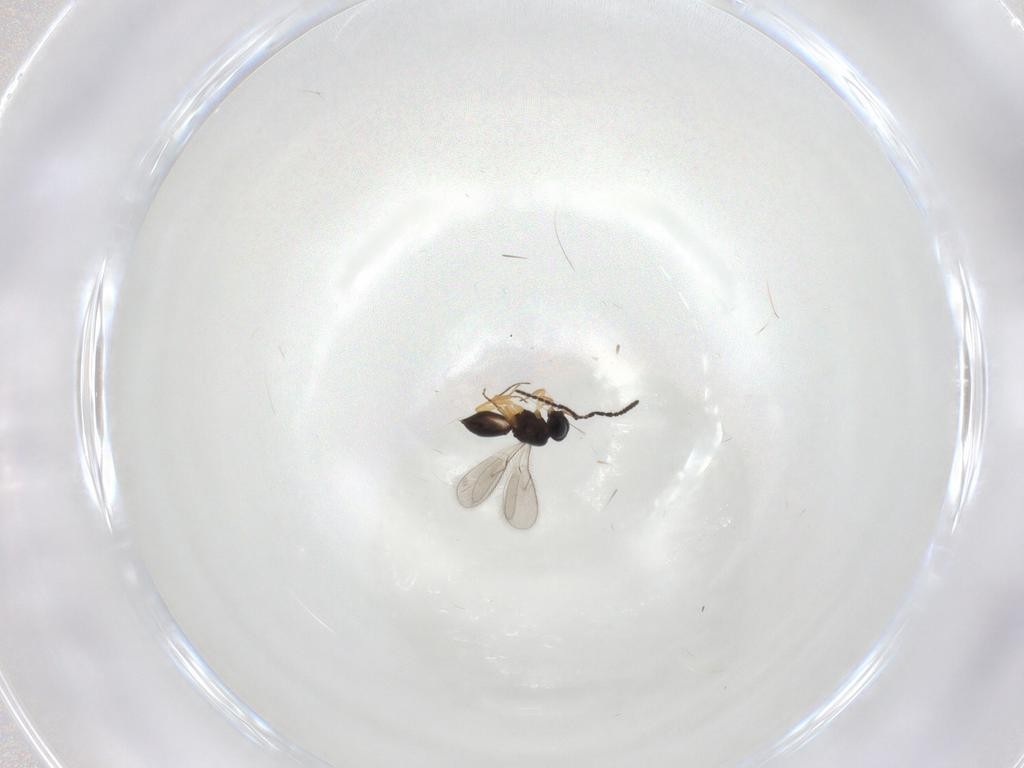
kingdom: Animalia
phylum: Arthropoda
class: Insecta
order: Hymenoptera
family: Scelionidae
